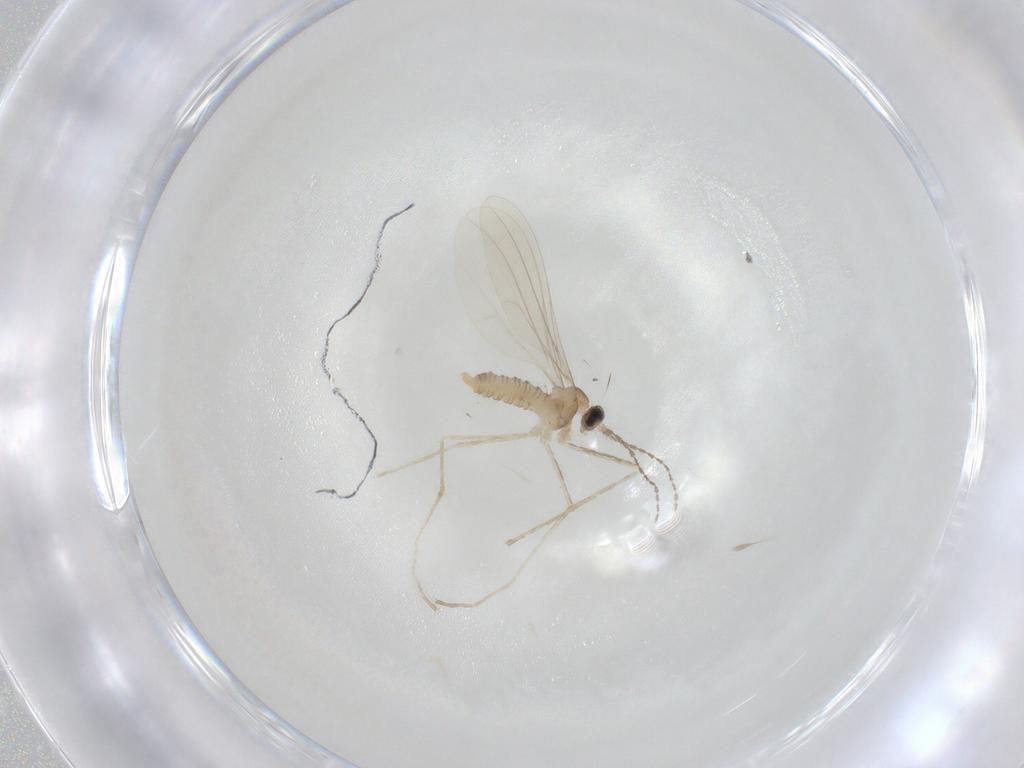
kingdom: Animalia
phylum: Arthropoda
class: Insecta
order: Diptera
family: Cecidomyiidae
